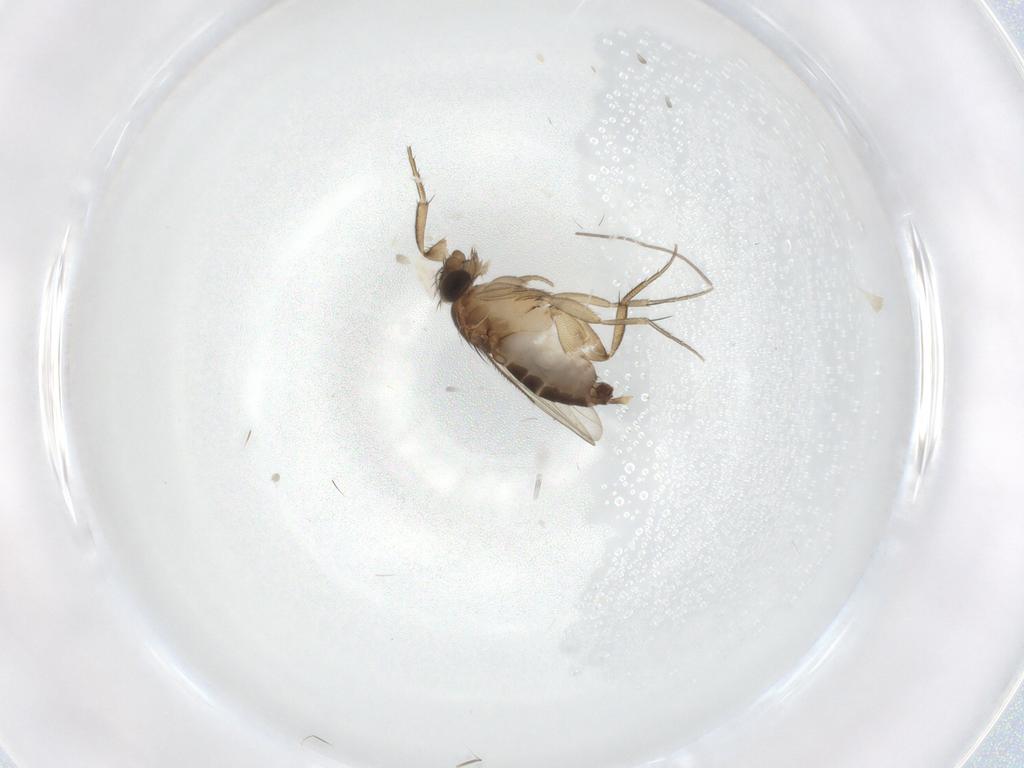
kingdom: Animalia
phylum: Arthropoda
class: Insecta
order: Diptera
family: Phoridae
